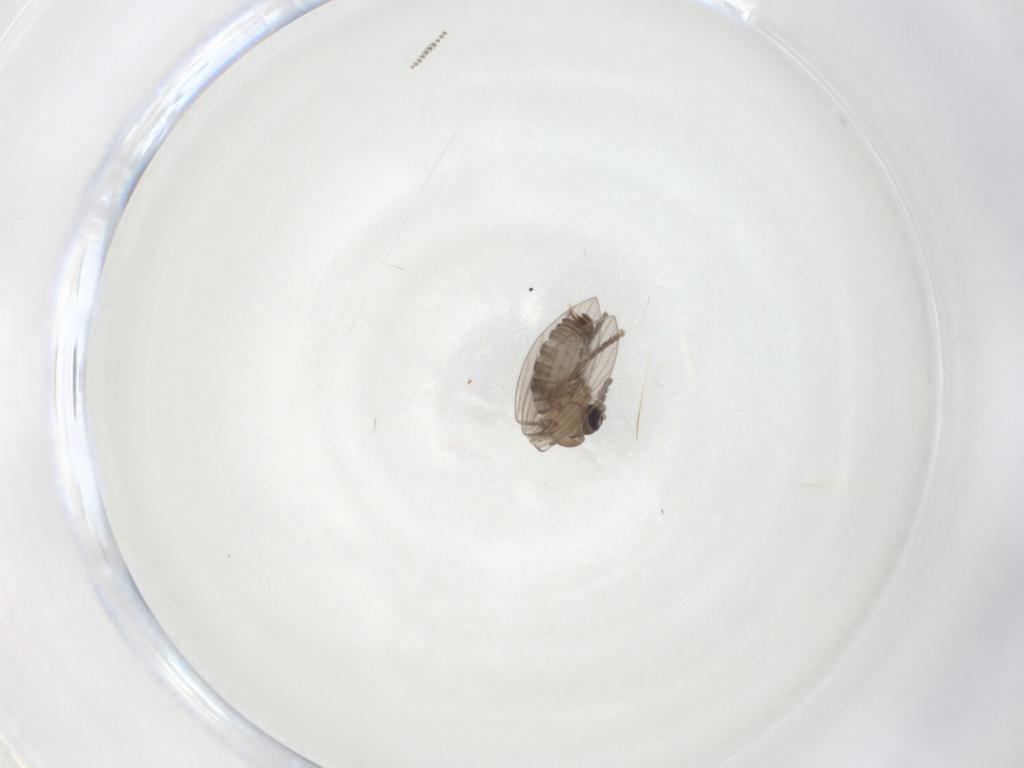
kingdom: Animalia
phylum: Arthropoda
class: Insecta
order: Diptera
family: Psychodidae
